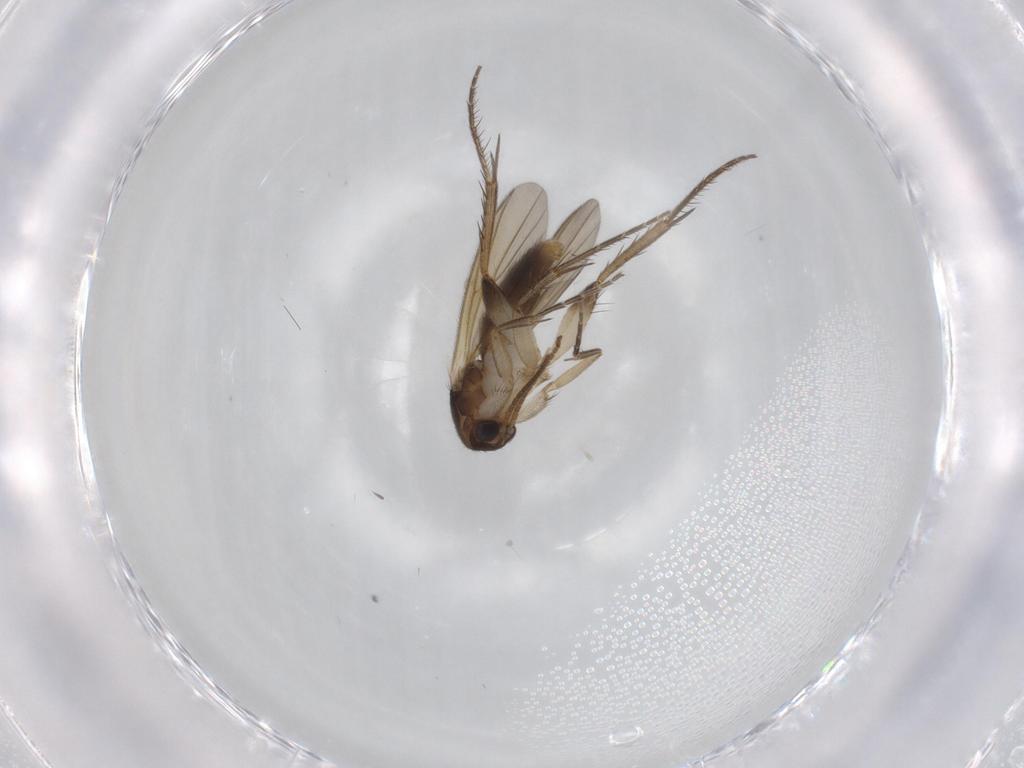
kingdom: Animalia
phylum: Arthropoda
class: Insecta
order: Diptera
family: Mycetophilidae
